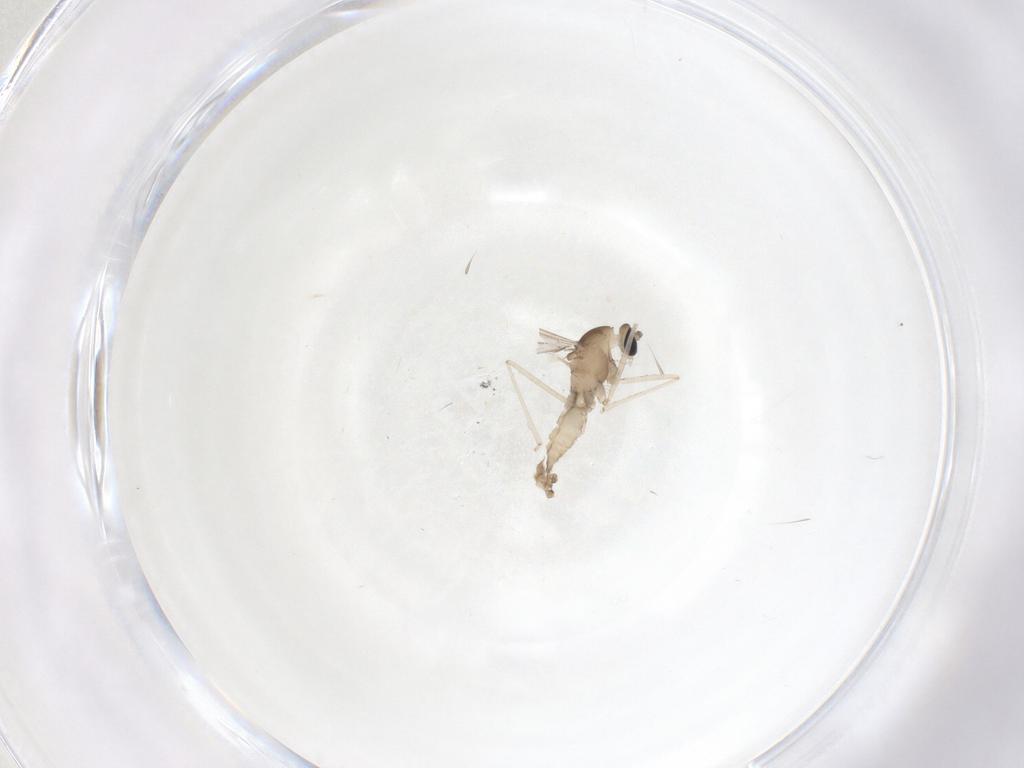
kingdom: Animalia
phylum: Arthropoda
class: Insecta
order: Diptera
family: Cecidomyiidae
